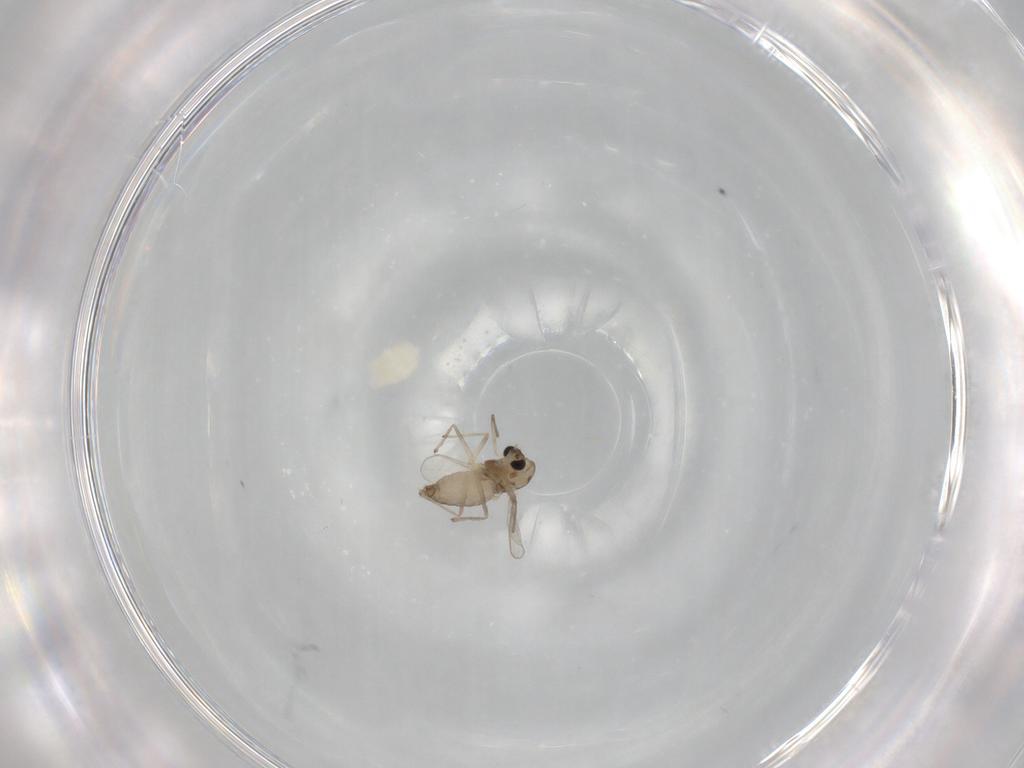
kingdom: Animalia
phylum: Arthropoda
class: Insecta
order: Diptera
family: Chironomidae
